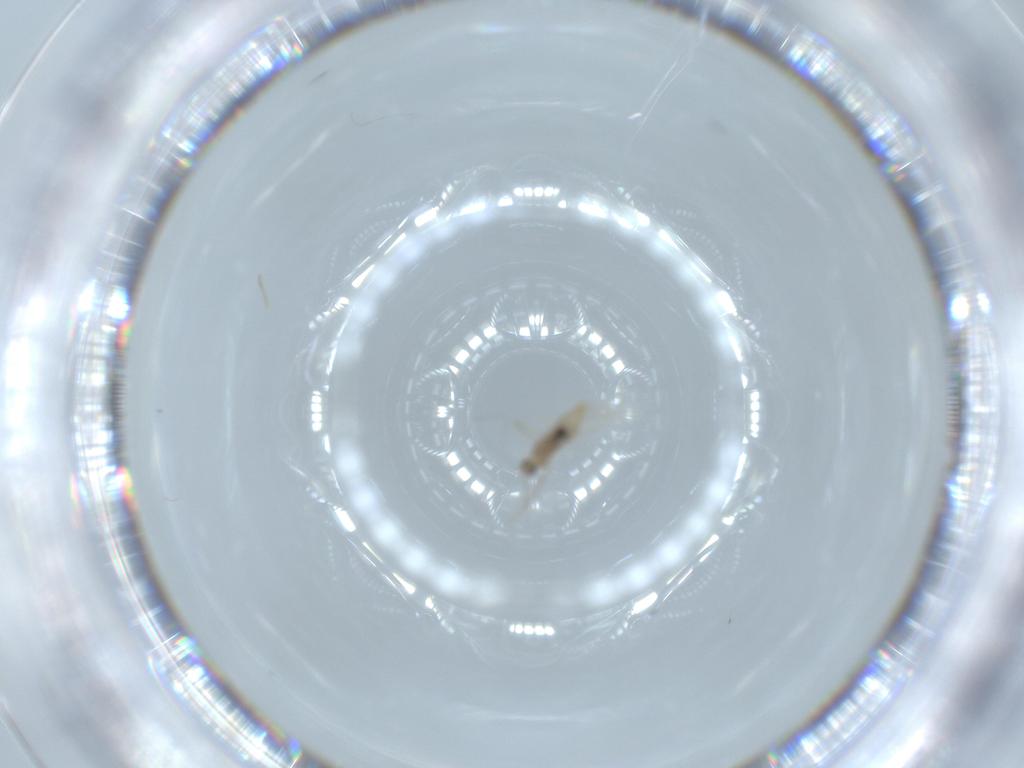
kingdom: Animalia
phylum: Arthropoda
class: Insecta
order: Diptera
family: Cecidomyiidae
